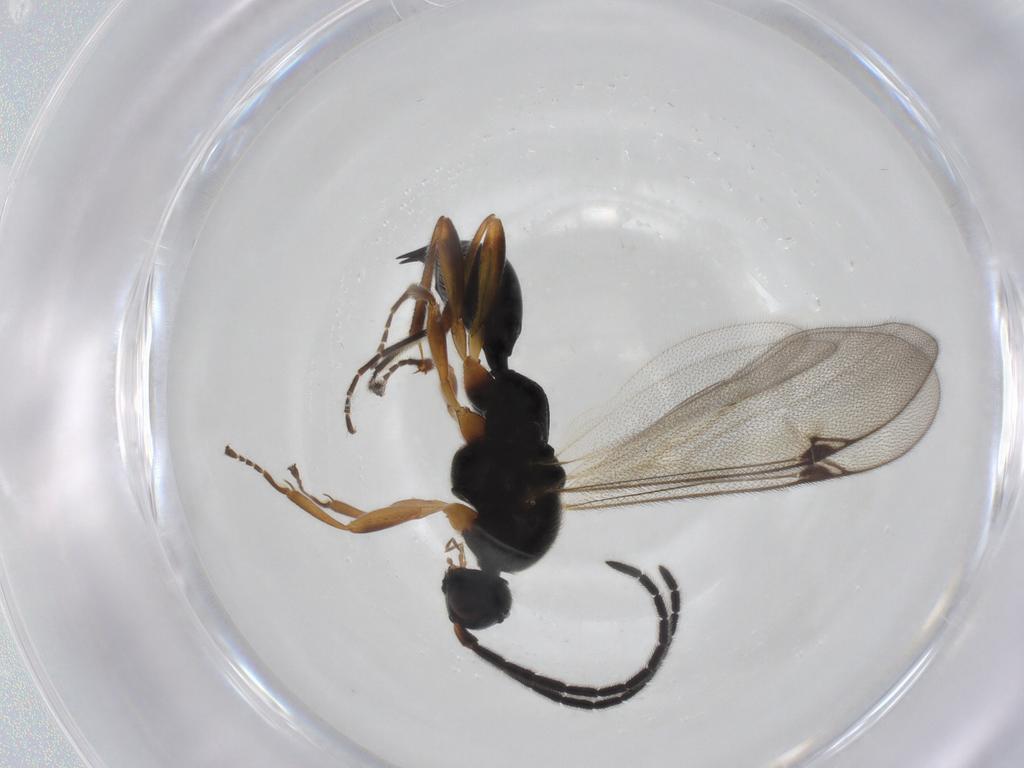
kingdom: Animalia
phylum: Arthropoda
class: Insecta
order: Hymenoptera
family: Proctotrupidae
